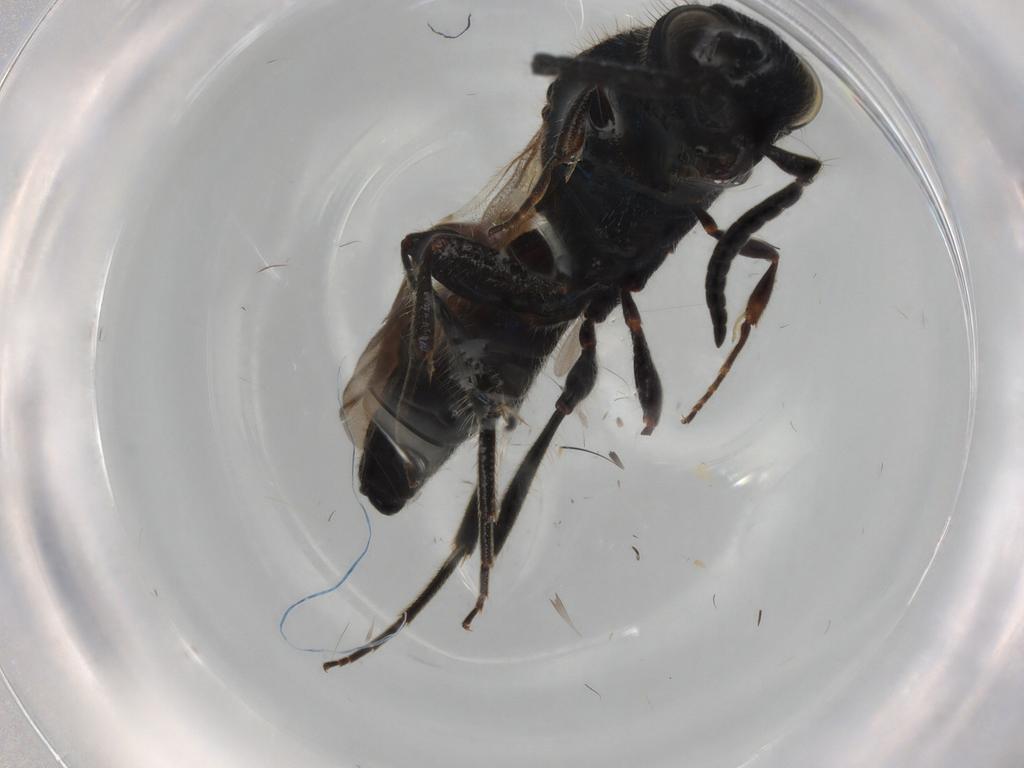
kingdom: Animalia
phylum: Arthropoda
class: Insecta
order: Hymenoptera
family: Scelionidae
